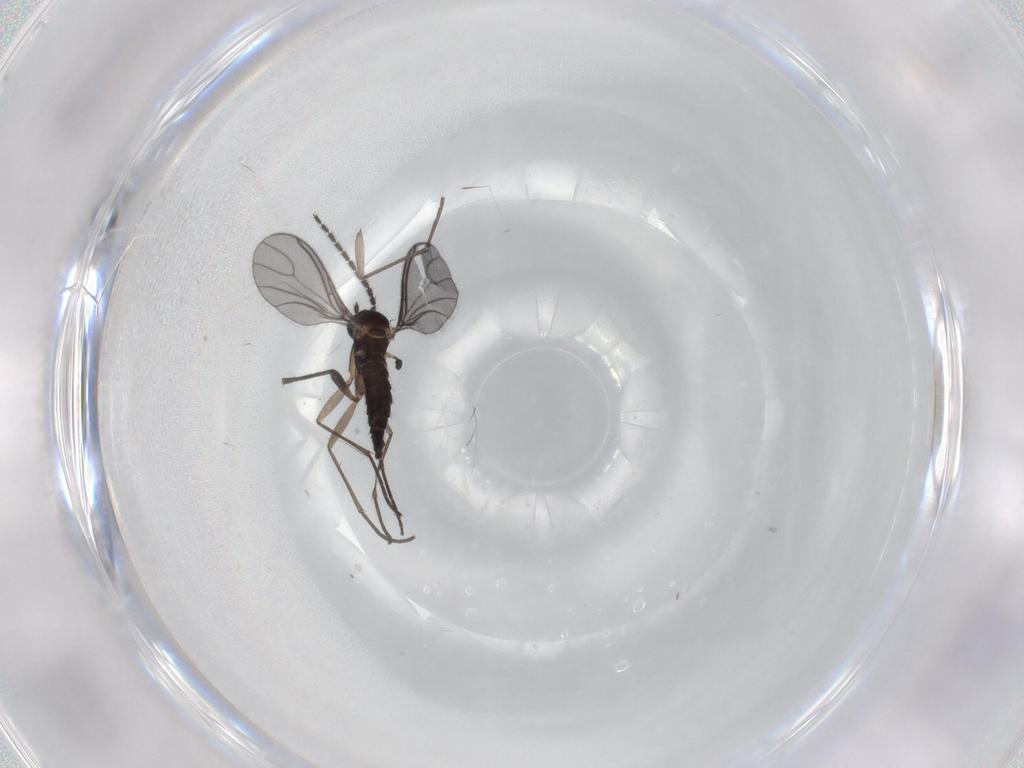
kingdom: Animalia
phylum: Arthropoda
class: Insecta
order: Diptera
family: Sciaridae
